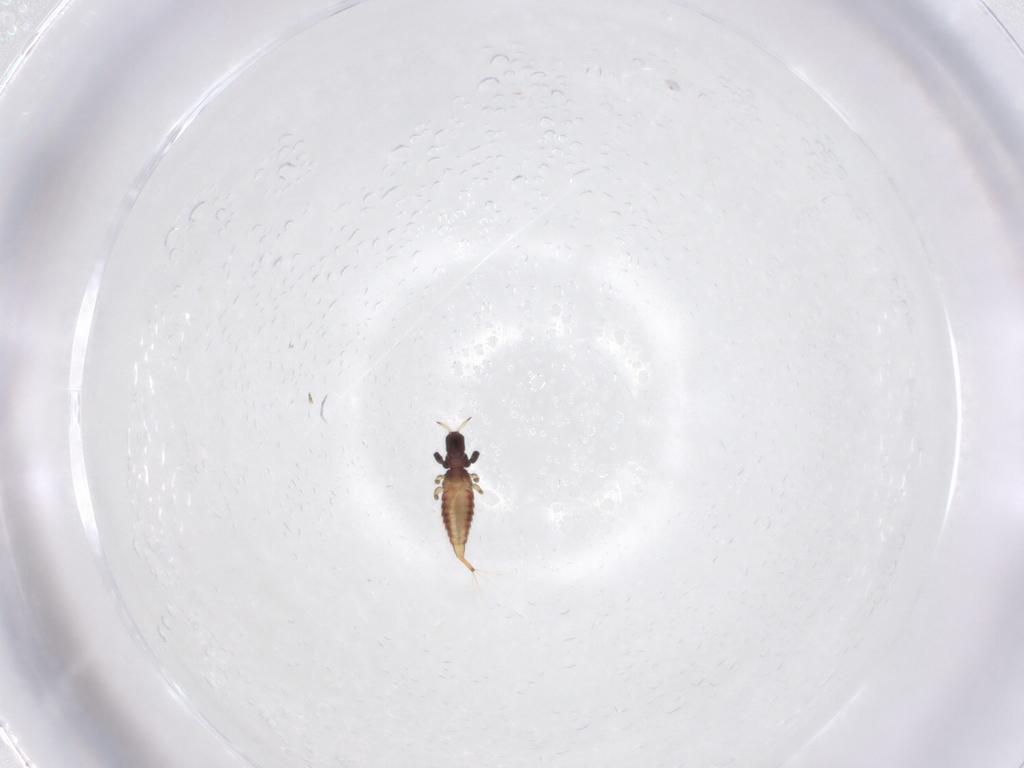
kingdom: Animalia
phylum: Arthropoda
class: Insecta
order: Thysanoptera
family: Phlaeothripidae
